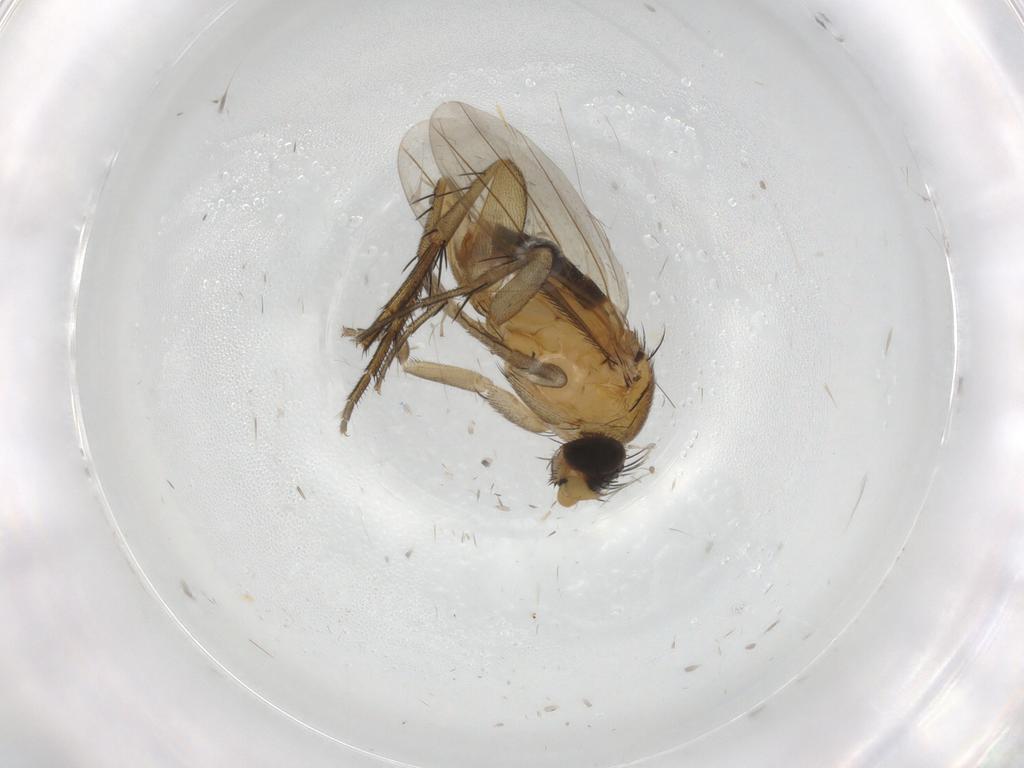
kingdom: Animalia
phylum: Arthropoda
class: Insecta
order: Diptera
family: Phoridae
